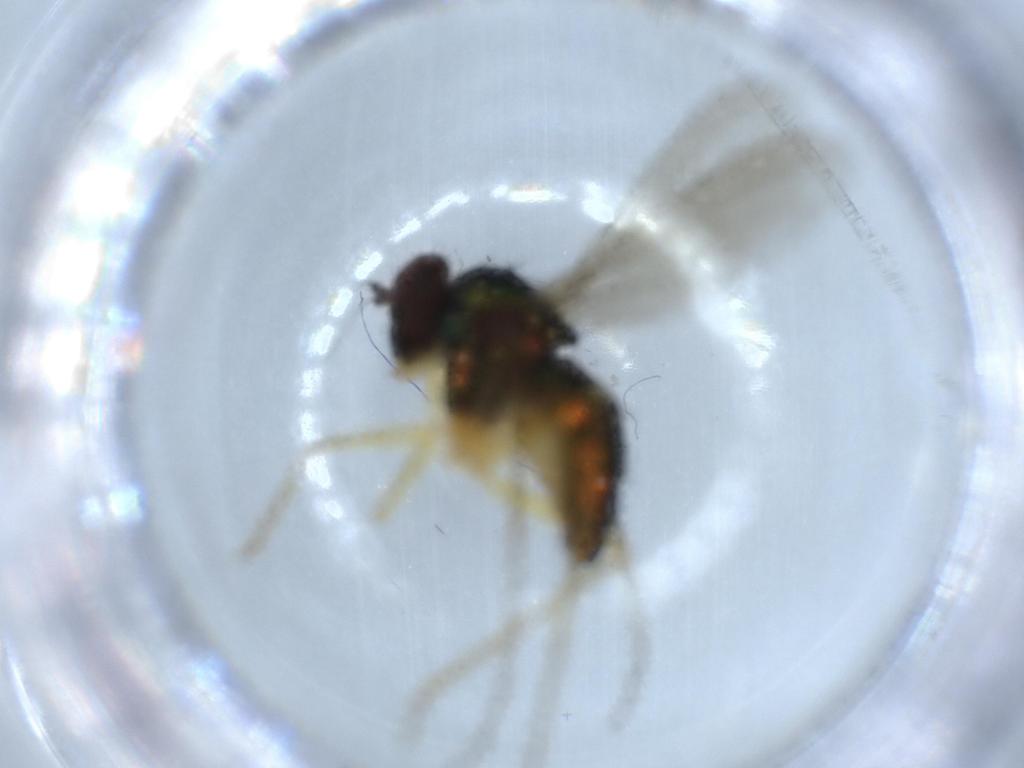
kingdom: Animalia
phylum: Arthropoda
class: Insecta
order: Diptera
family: Dolichopodidae
